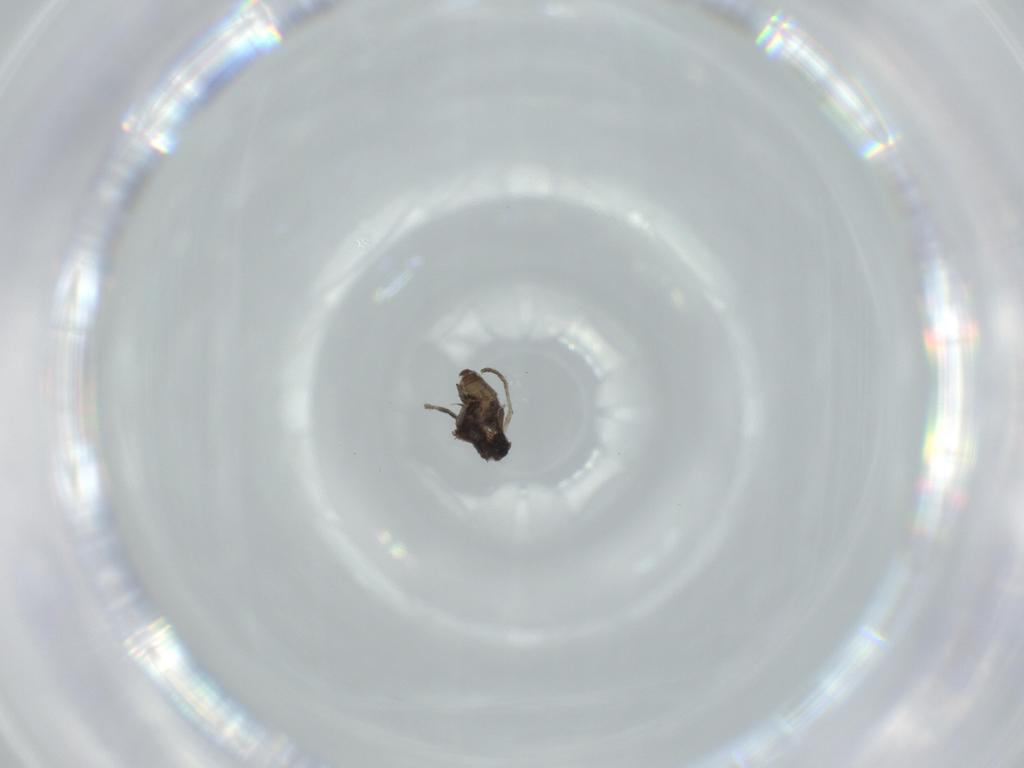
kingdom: Animalia
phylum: Arthropoda
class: Insecta
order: Diptera
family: Psychodidae
